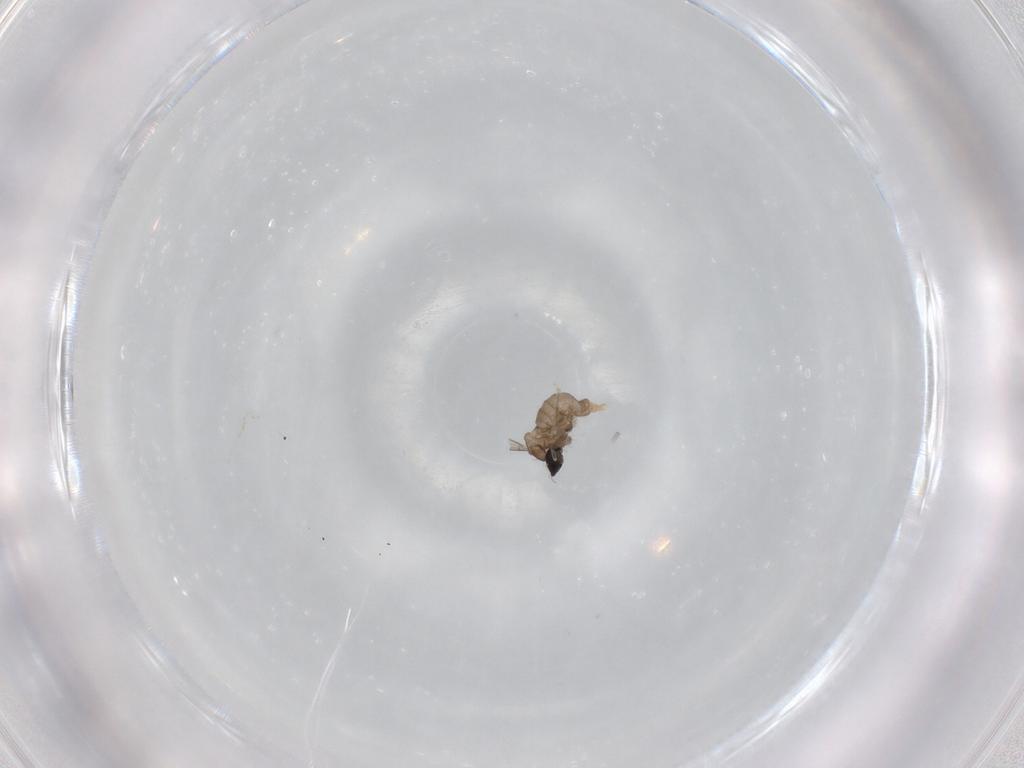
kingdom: Animalia
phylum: Arthropoda
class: Insecta
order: Diptera
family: Cecidomyiidae
